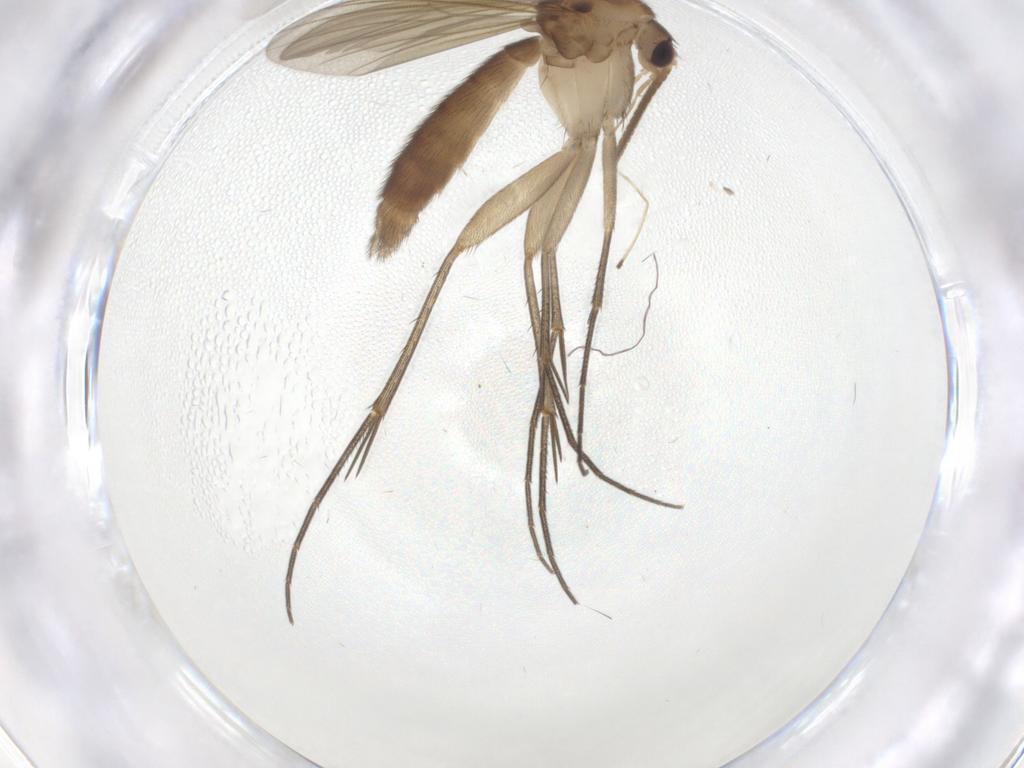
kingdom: Animalia
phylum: Arthropoda
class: Insecta
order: Diptera
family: Mycetophilidae
